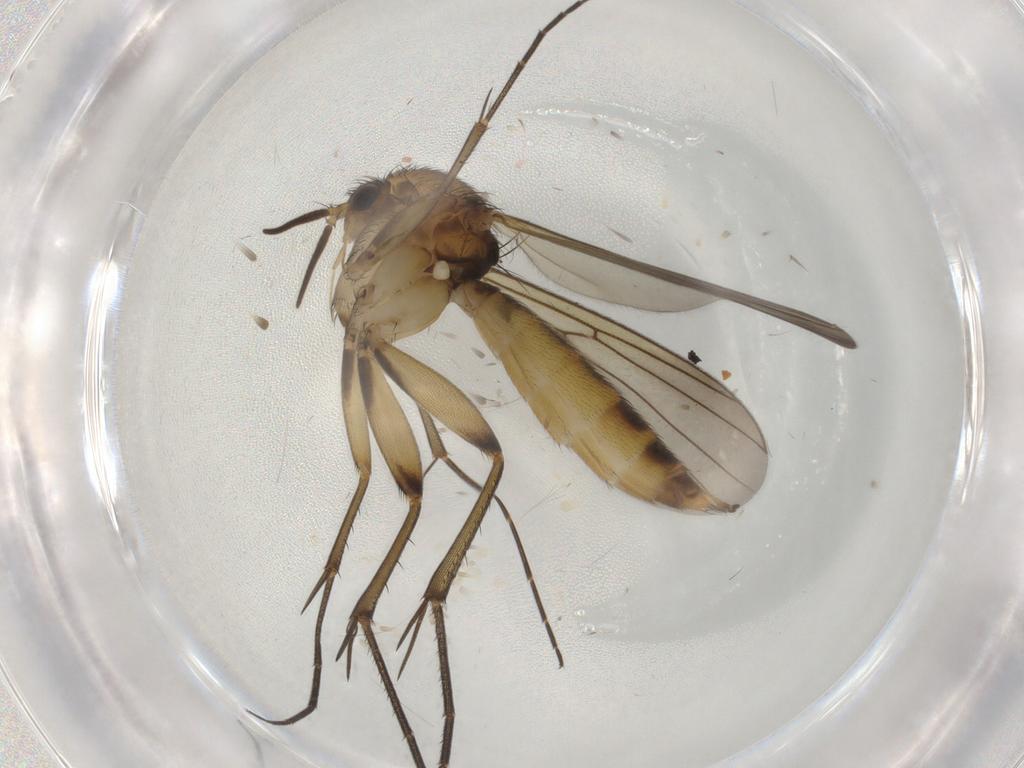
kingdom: Animalia
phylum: Arthropoda
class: Insecta
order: Diptera
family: Mycetophilidae
